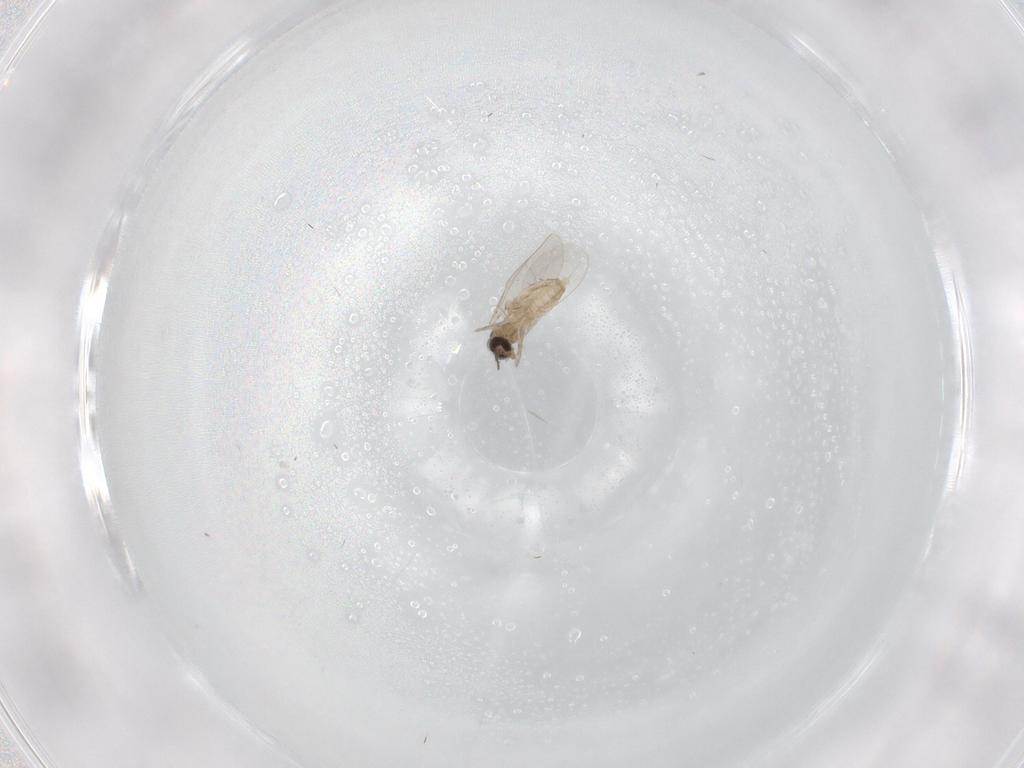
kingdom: Animalia
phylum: Arthropoda
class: Insecta
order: Diptera
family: Cecidomyiidae
